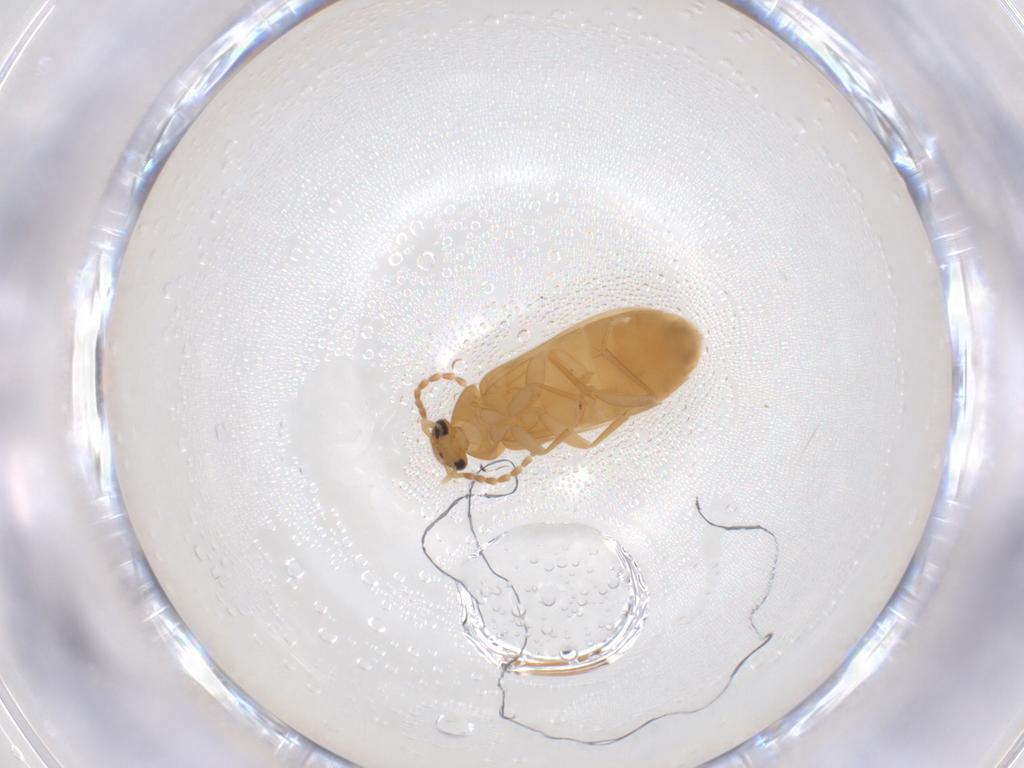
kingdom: Animalia
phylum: Arthropoda
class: Insecta
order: Coleoptera
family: Scraptiidae
